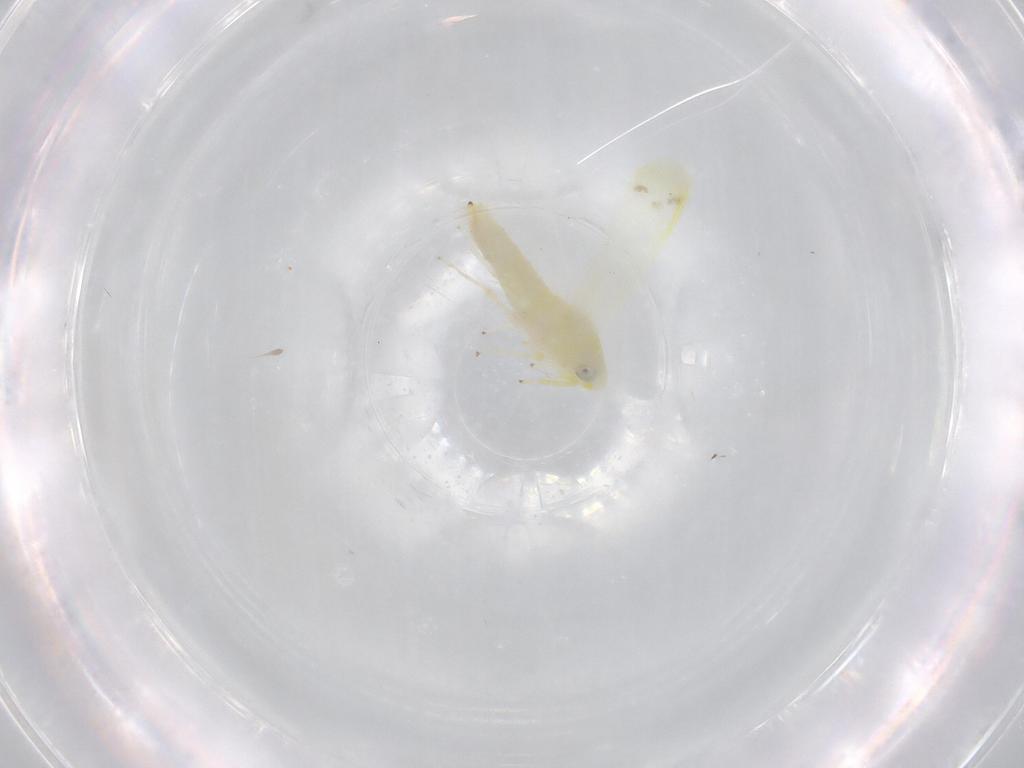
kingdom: Animalia
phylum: Arthropoda
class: Insecta
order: Hemiptera
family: Cicadellidae
